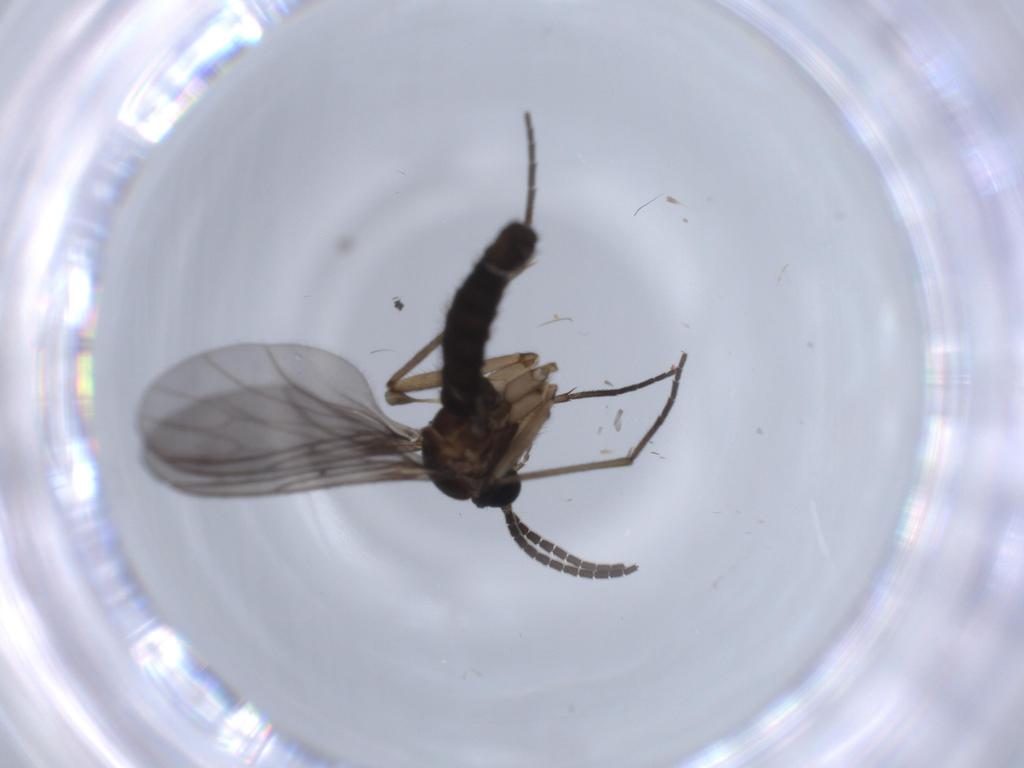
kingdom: Animalia
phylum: Arthropoda
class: Insecta
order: Diptera
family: Sciaridae
